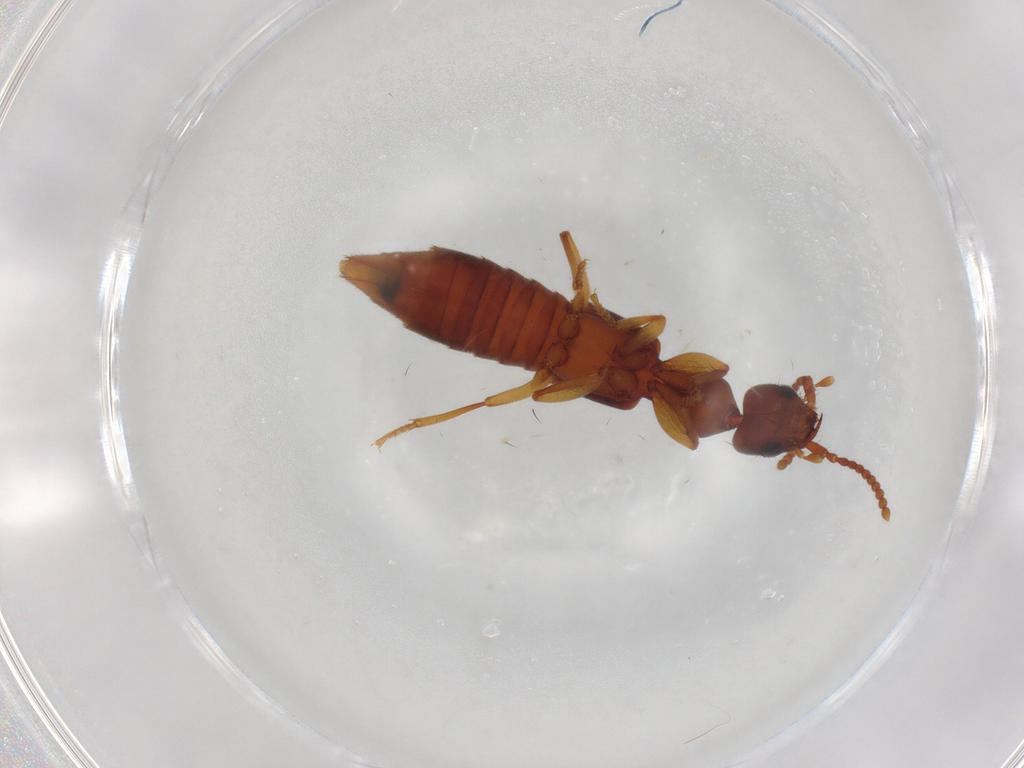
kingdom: Animalia
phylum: Arthropoda
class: Insecta
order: Coleoptera
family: Staphylinidae
